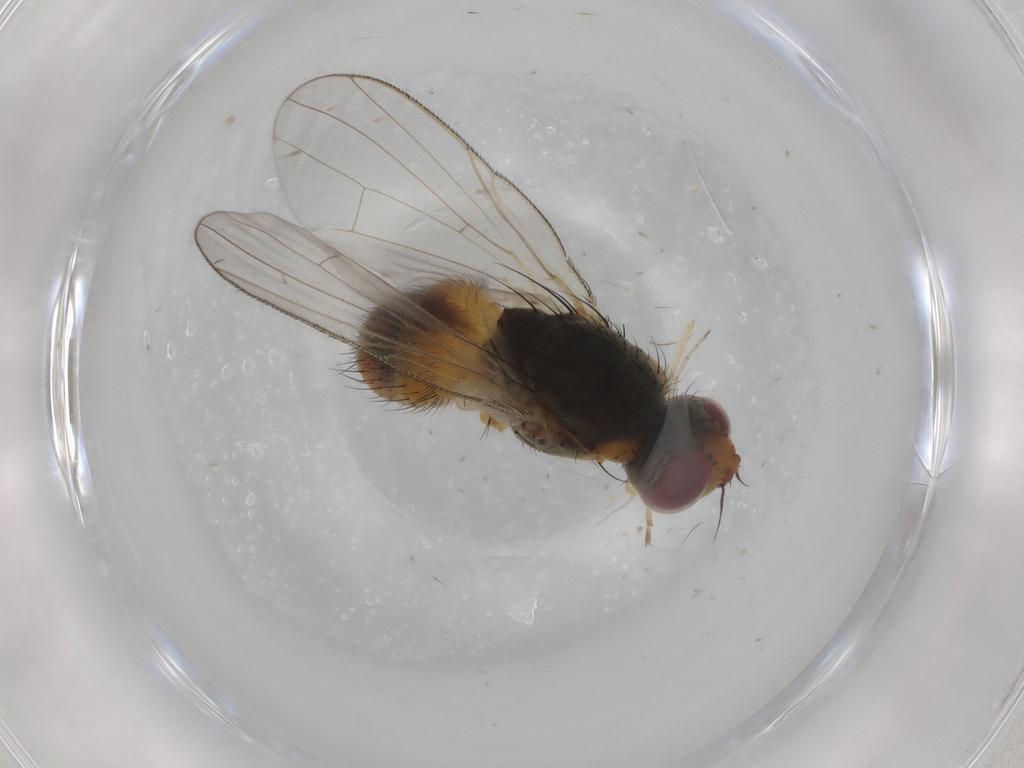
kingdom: Animalia
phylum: Arthropoda
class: Insecta
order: Diptera
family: Muscidae
